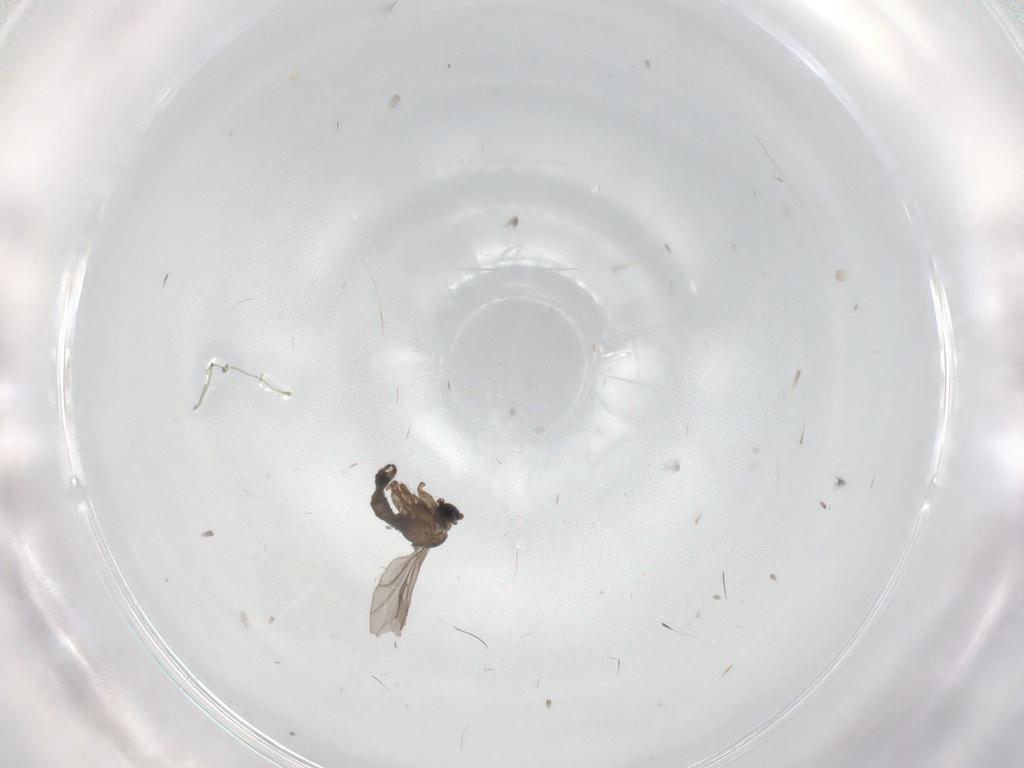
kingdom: Animalia
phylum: Arthropoda
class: Insecta
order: Diptera
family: Sciaridae
